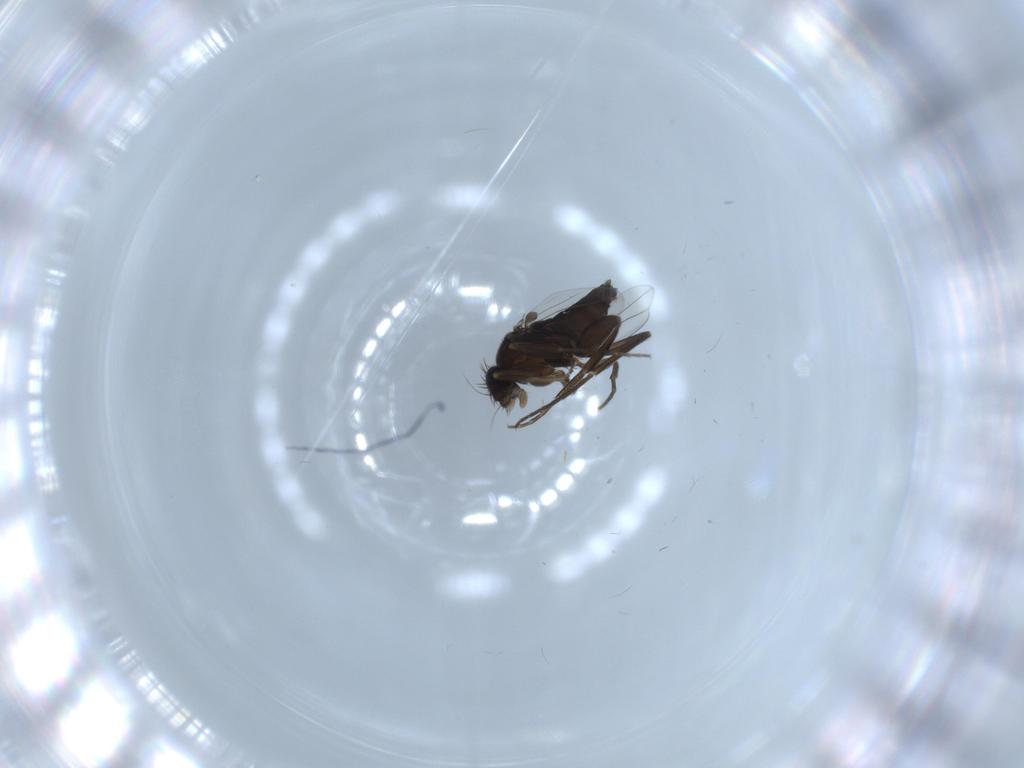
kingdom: Animalia
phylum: Arthropoda
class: Insecta
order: Diptera
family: Phoridae
